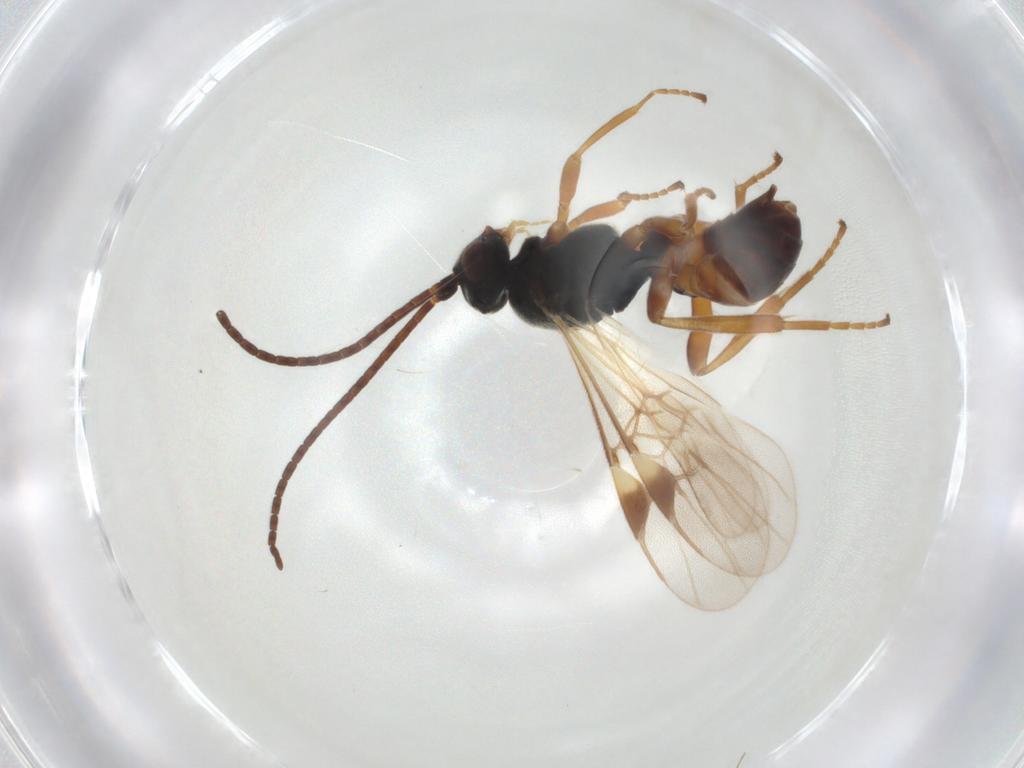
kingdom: Animalia
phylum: Arthropoda
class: Insecta
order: Hymenoptera
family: Braconidae
